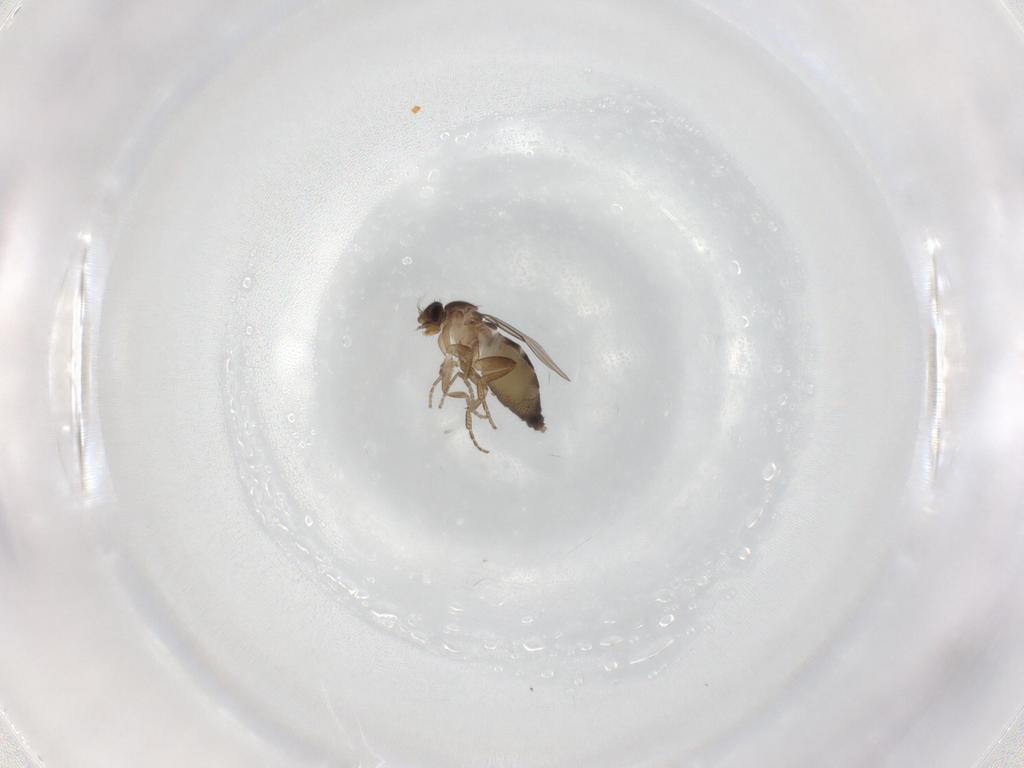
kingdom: Animalia
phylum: Arthropoda
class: Insecta
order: Diptera
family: Phoridae
